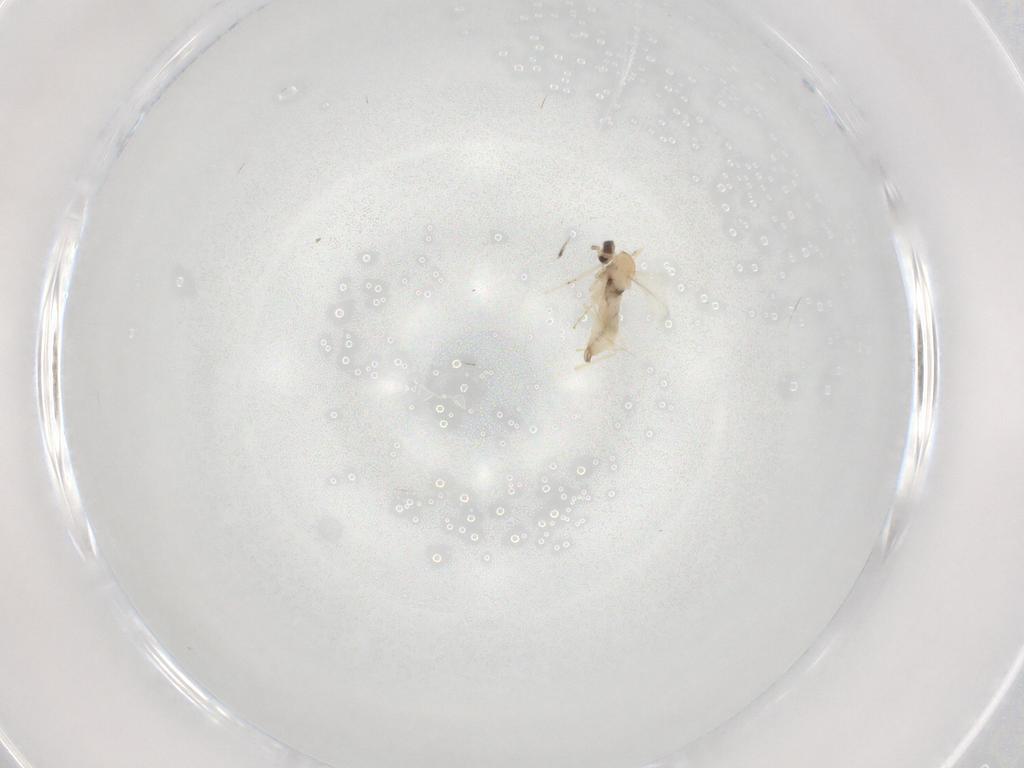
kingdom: Animalia
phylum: Arthropoda
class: Insecta
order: Diptera
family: Cecidomyiidae
